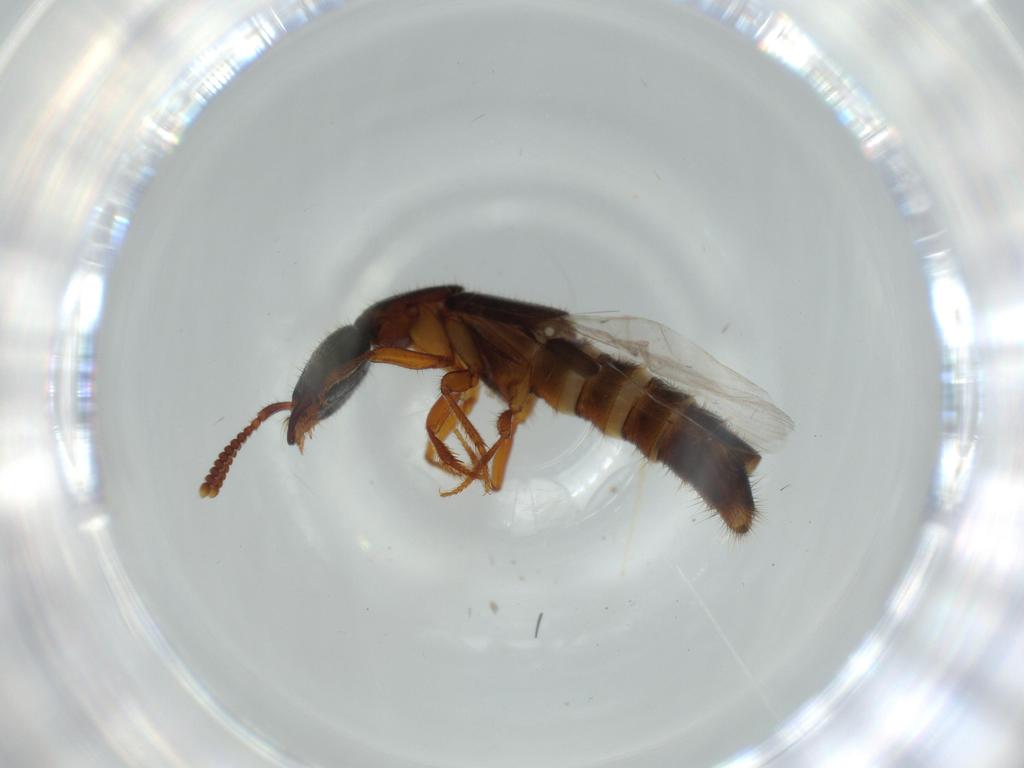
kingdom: Animalia
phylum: Arthropoda
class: Insecta
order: Coleoptera
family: Staphylinidae
